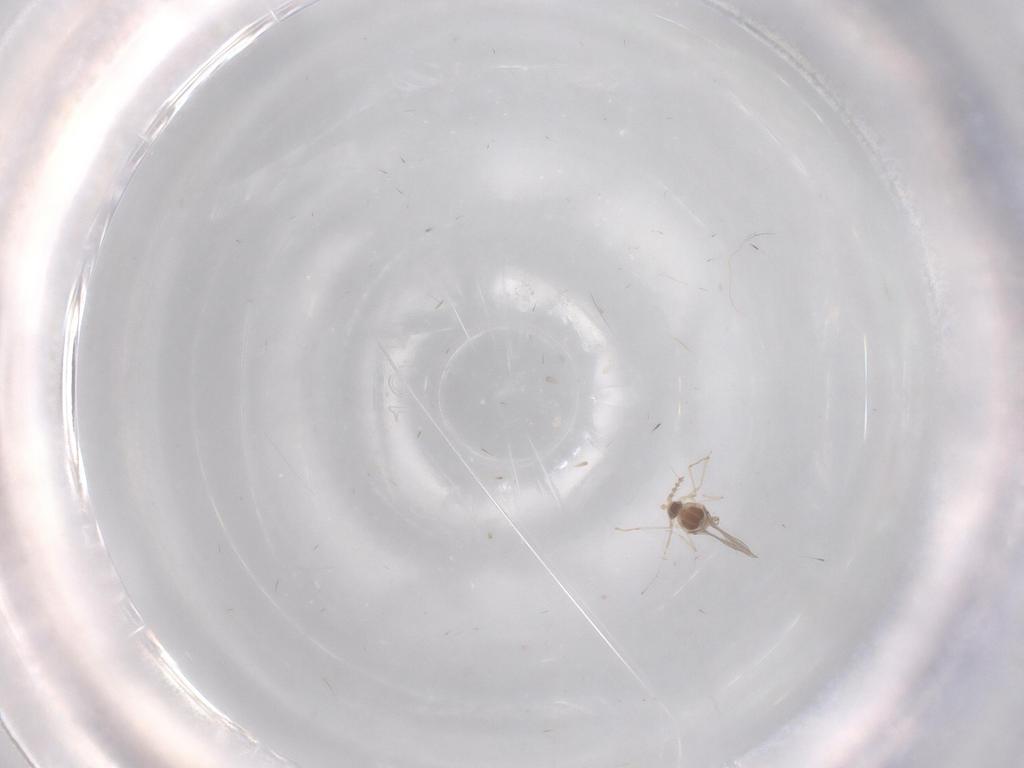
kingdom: Animalia
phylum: Arthropoda
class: Insecta
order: Diptera
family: Cecidomyiidae
